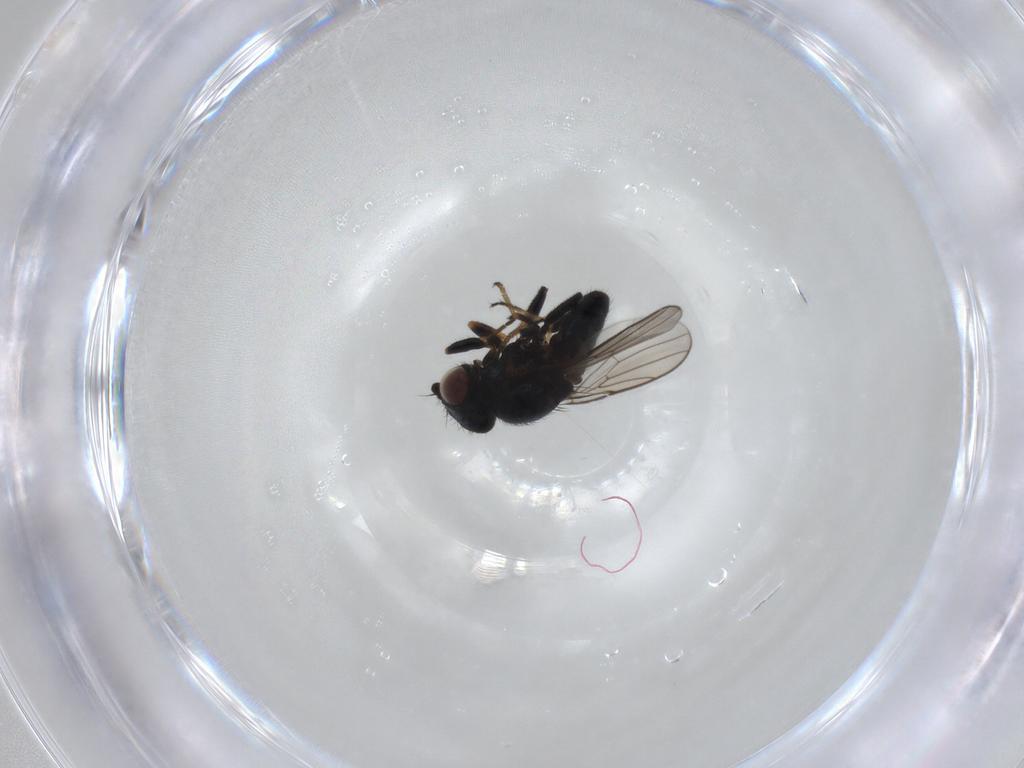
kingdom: Animalia
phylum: Arthropoda
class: Insecta
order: Diptera
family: Chloropidae
